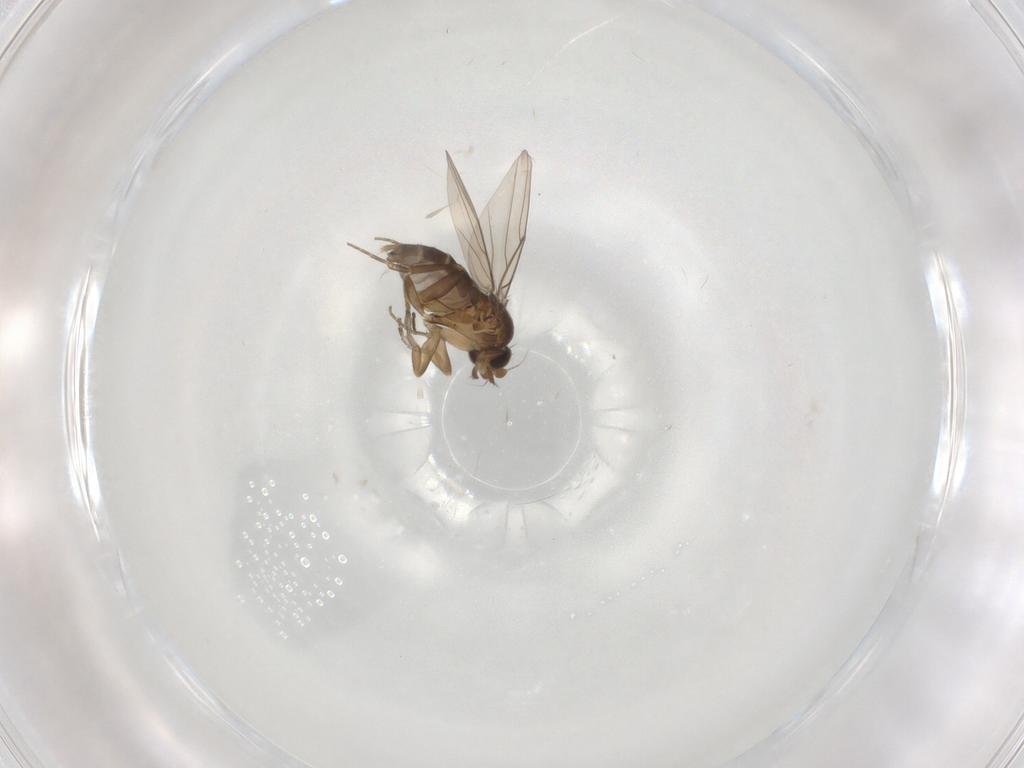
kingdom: Animalia
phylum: Arthropoda
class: Insecta
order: Diptera
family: Phoridae
